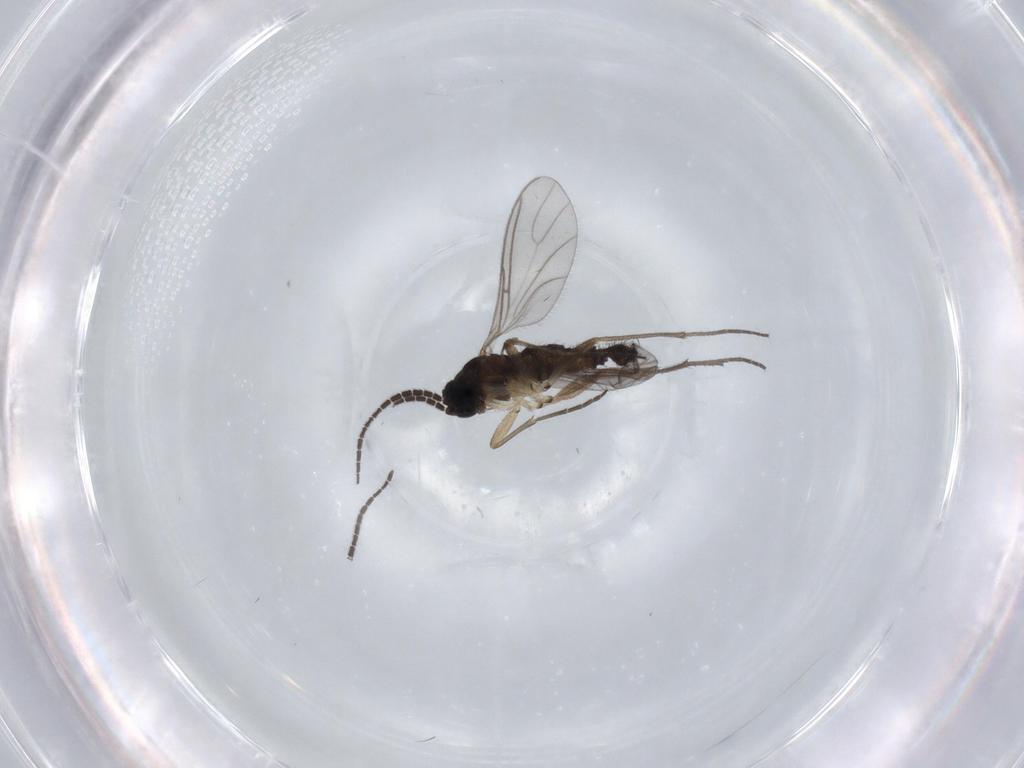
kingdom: Animalia
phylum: Arthropoda
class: Insecta
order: Diptera
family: Sciaridae
